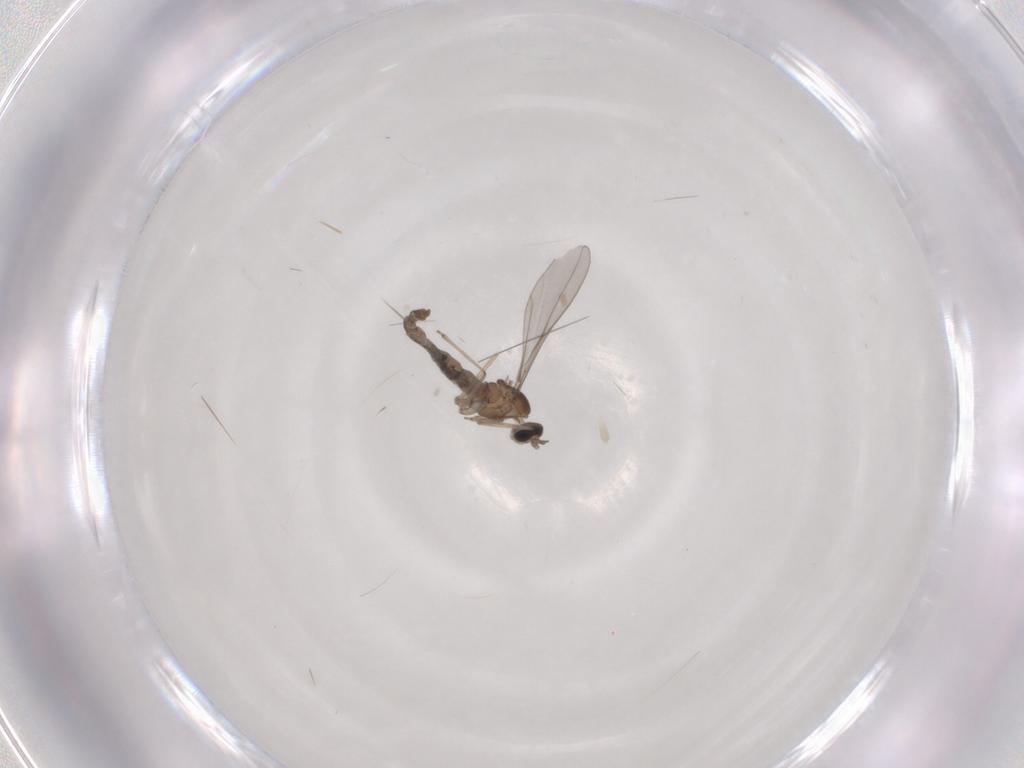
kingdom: Animalia
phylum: Arthropoda
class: Insecta
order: Diptera
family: Cecidomyiidae
